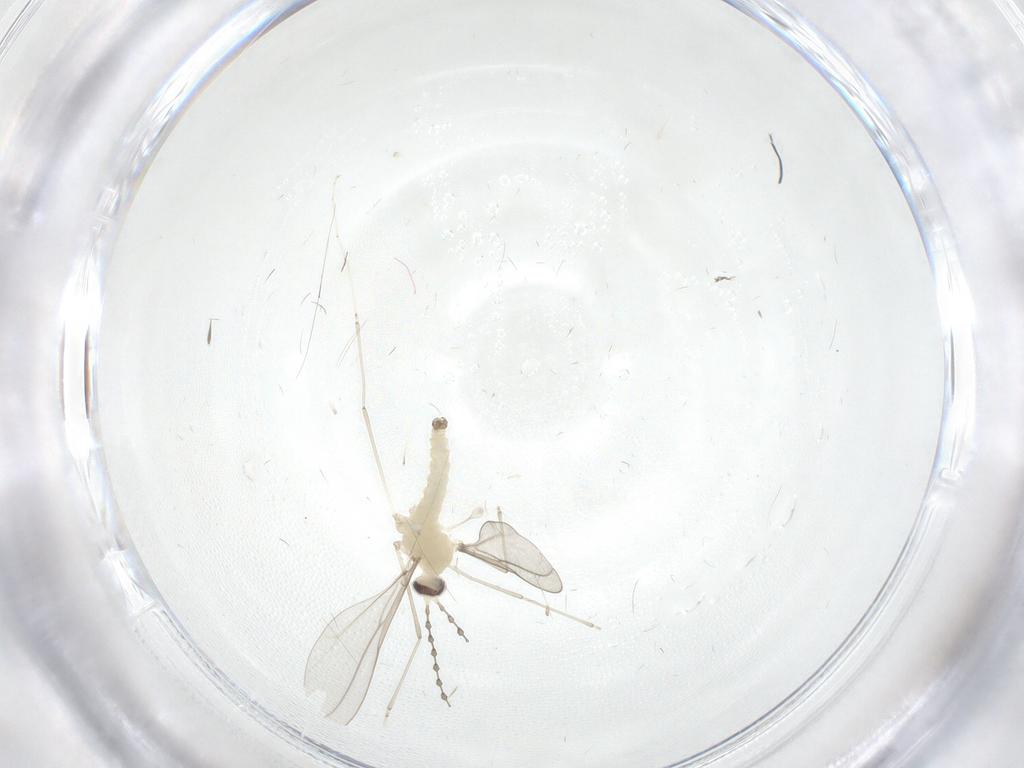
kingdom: Animalia
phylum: Arthropoda
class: Insecta
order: Diptera
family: Cecidomyiidae
